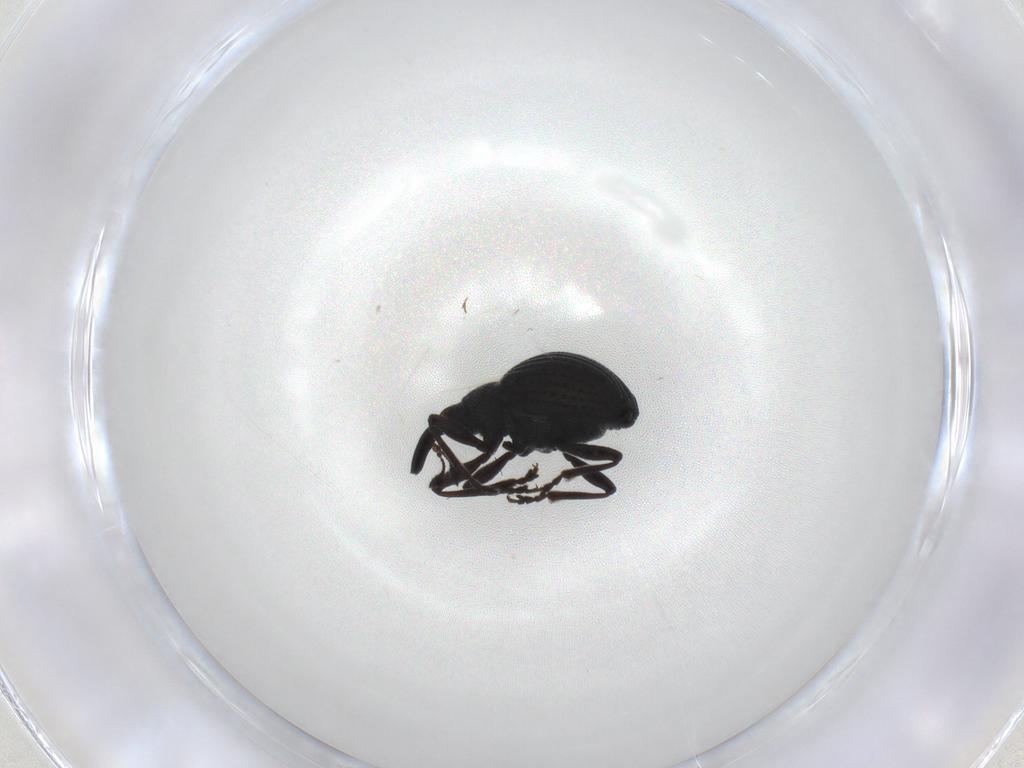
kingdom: Animalia
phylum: Arthropoda
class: Insecta
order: Coleoptera
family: Brentidae
